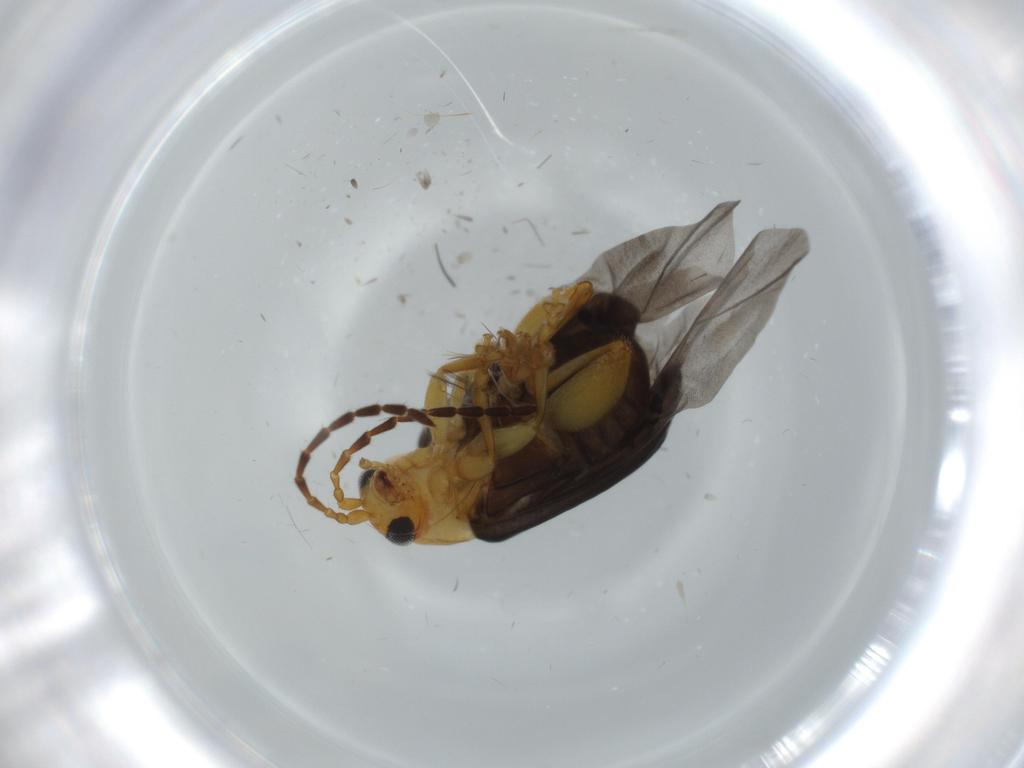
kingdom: Animalia
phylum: Arthropoda
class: Insecta
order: Coleoptera
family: Chrysomelidae
